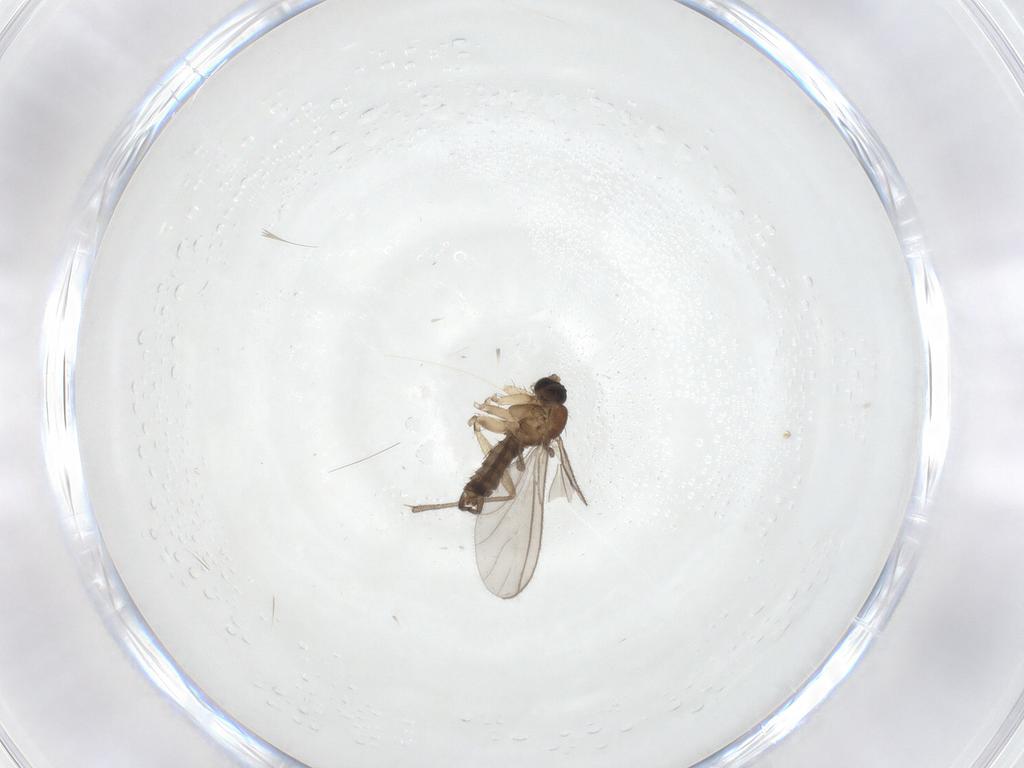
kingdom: Animalia
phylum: Arthropoda
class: Insecta
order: Diptera
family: Sciaridae
